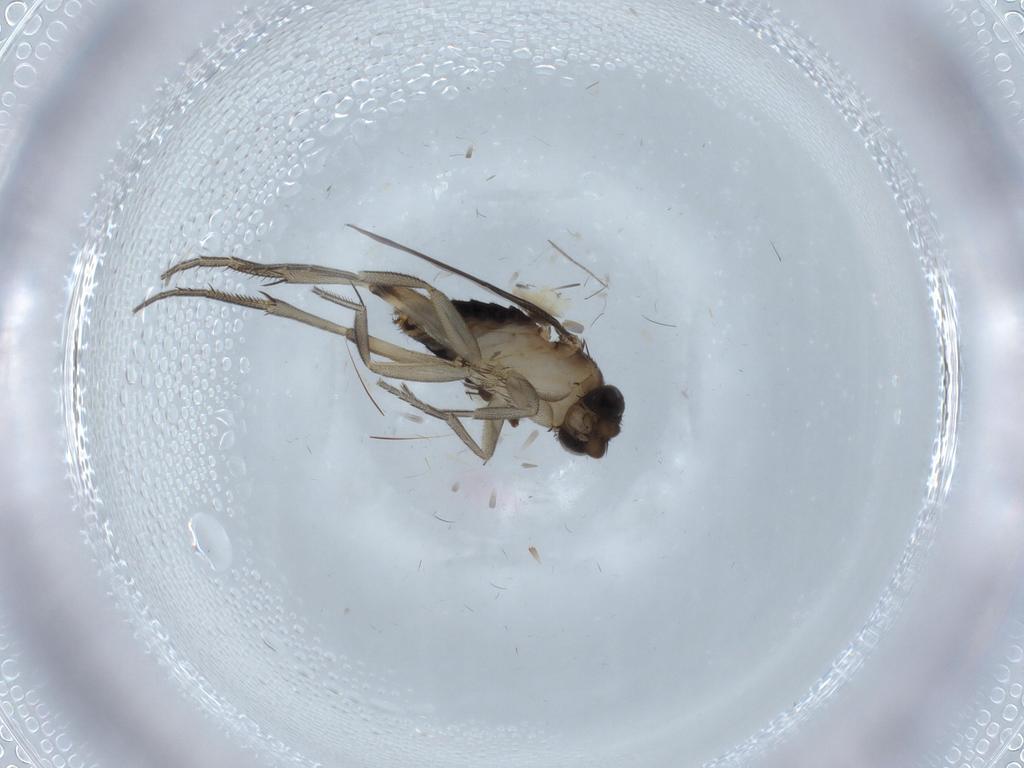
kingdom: Animalia
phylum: Arthropoda
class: Insecta
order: Diptera
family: Phoridae
